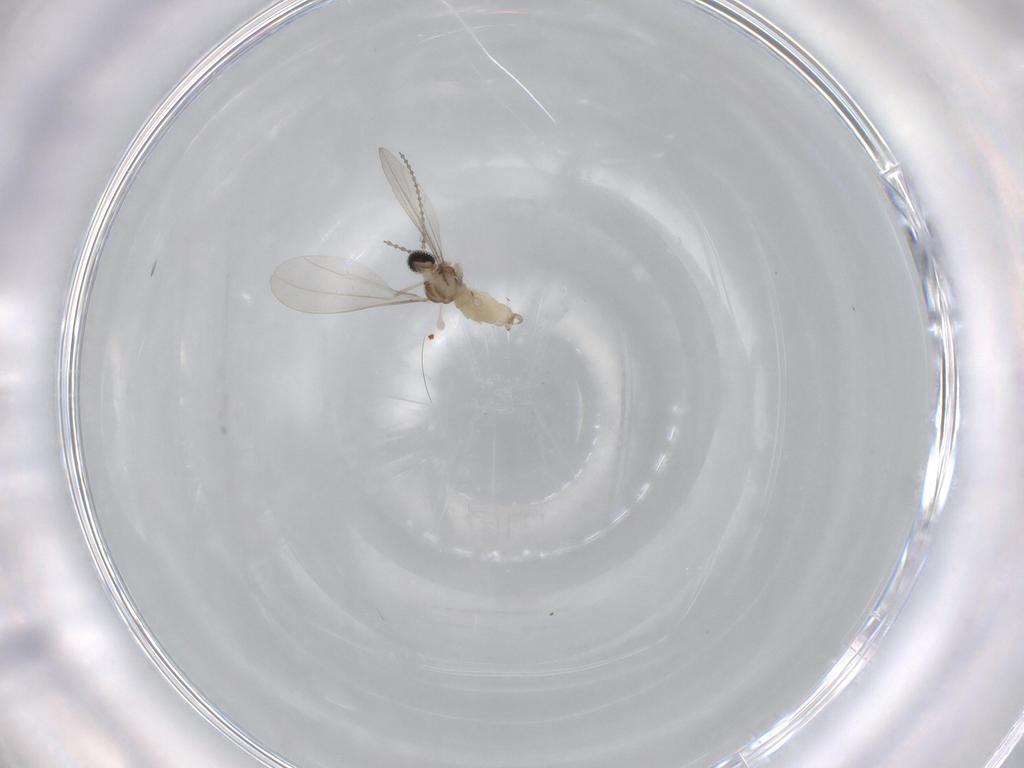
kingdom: Animalia
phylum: Arthropoda
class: Insecta
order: Diptera
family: Cecidomyiidae
